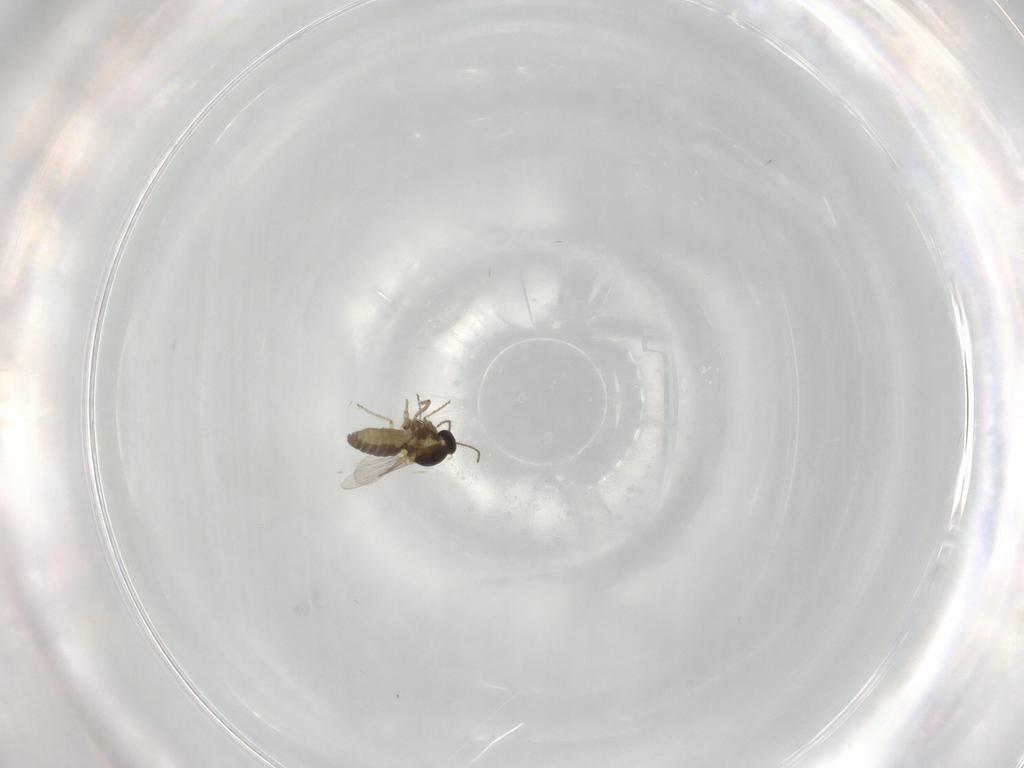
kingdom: Animalia
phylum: Arthropoda
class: Insecta
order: Diptera
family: Ceratopogonidae
